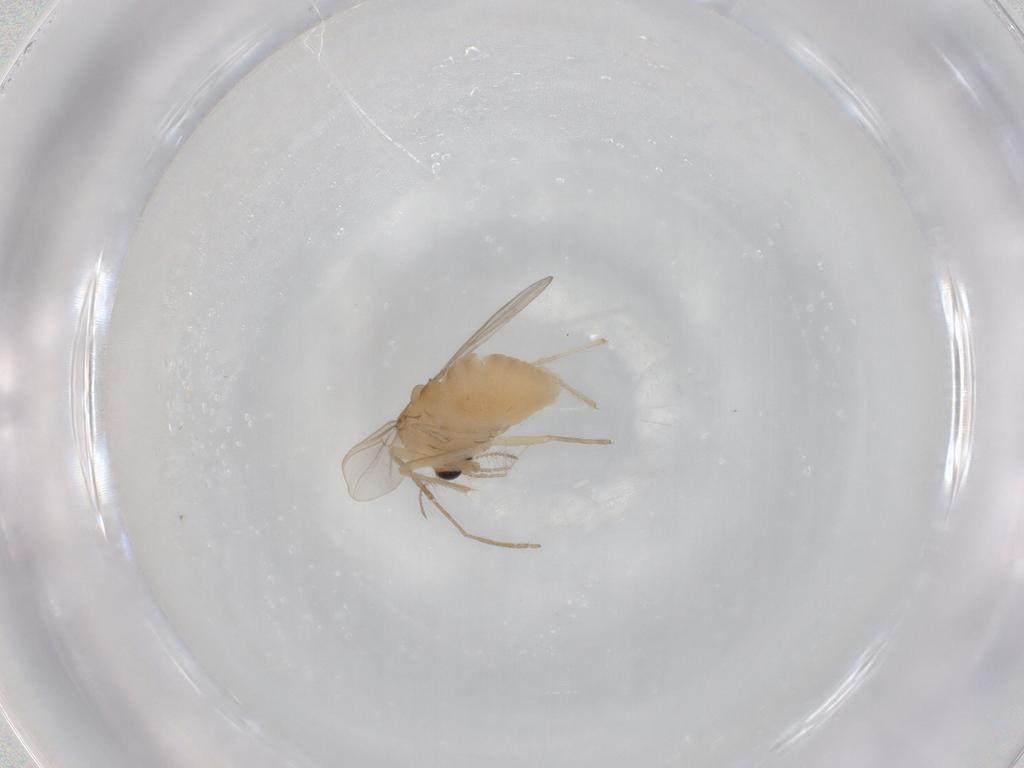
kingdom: Animalia
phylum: Arthropoda
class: Insecta
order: Diptera
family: Chironomidae
